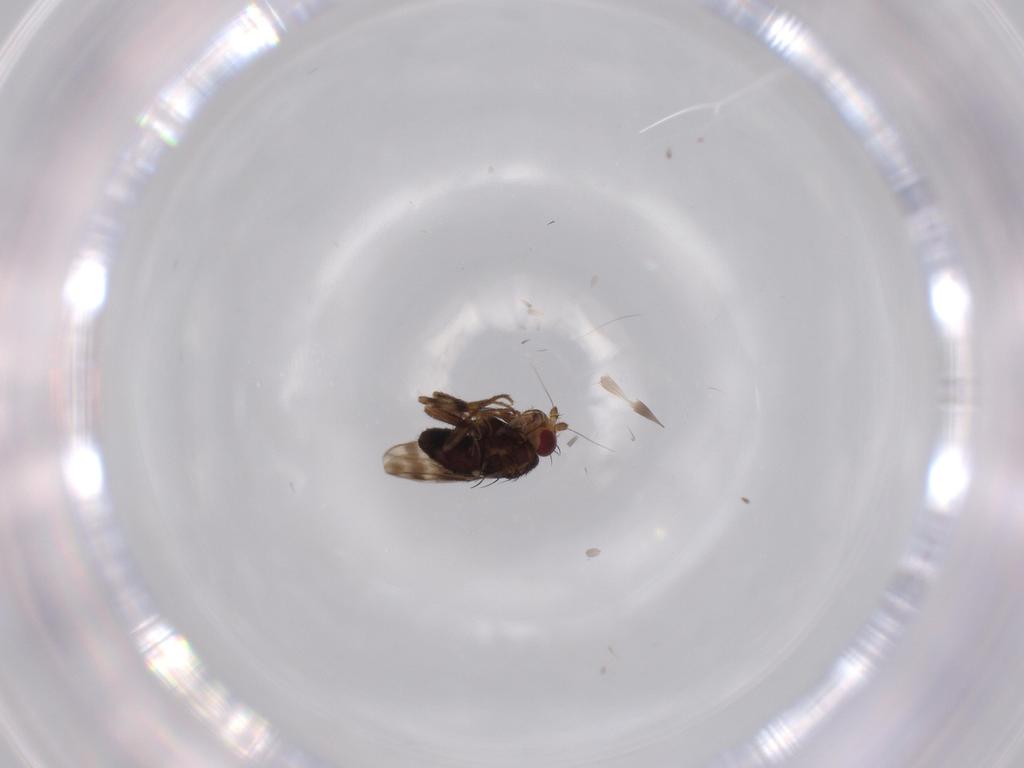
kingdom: Animalia
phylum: Arthropoda
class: Insecta
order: Diptera
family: Sphaeroceridae
